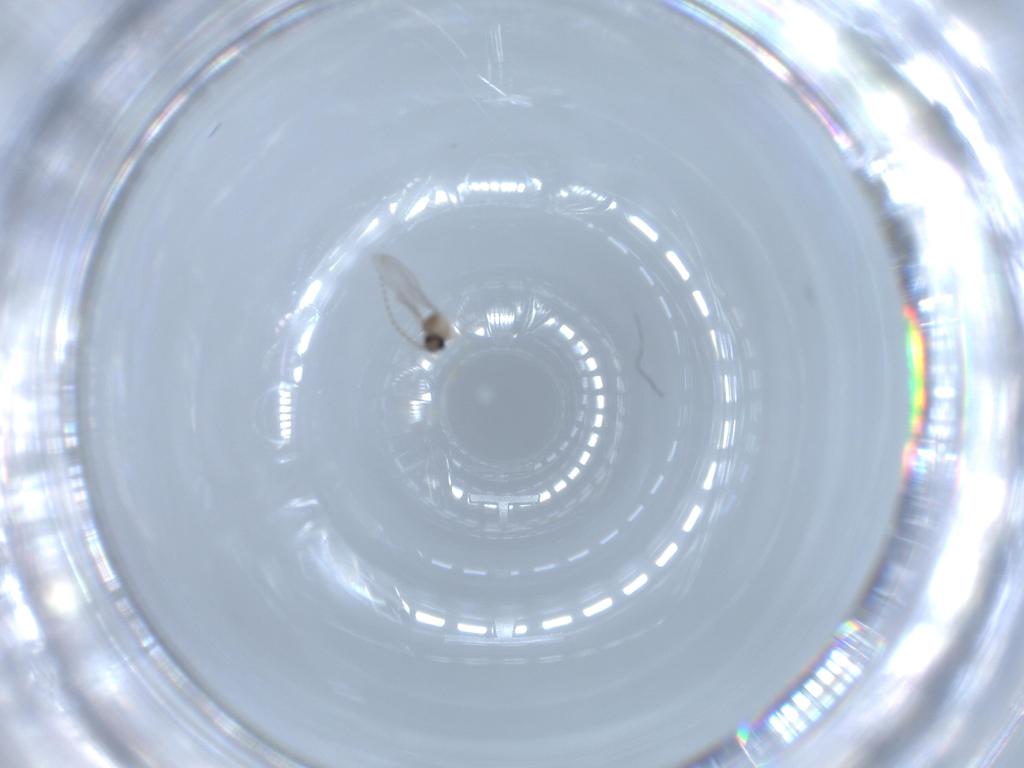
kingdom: Animalia
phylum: Arthropoda
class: Insecta
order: Diptera
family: Cecidomyiidae
